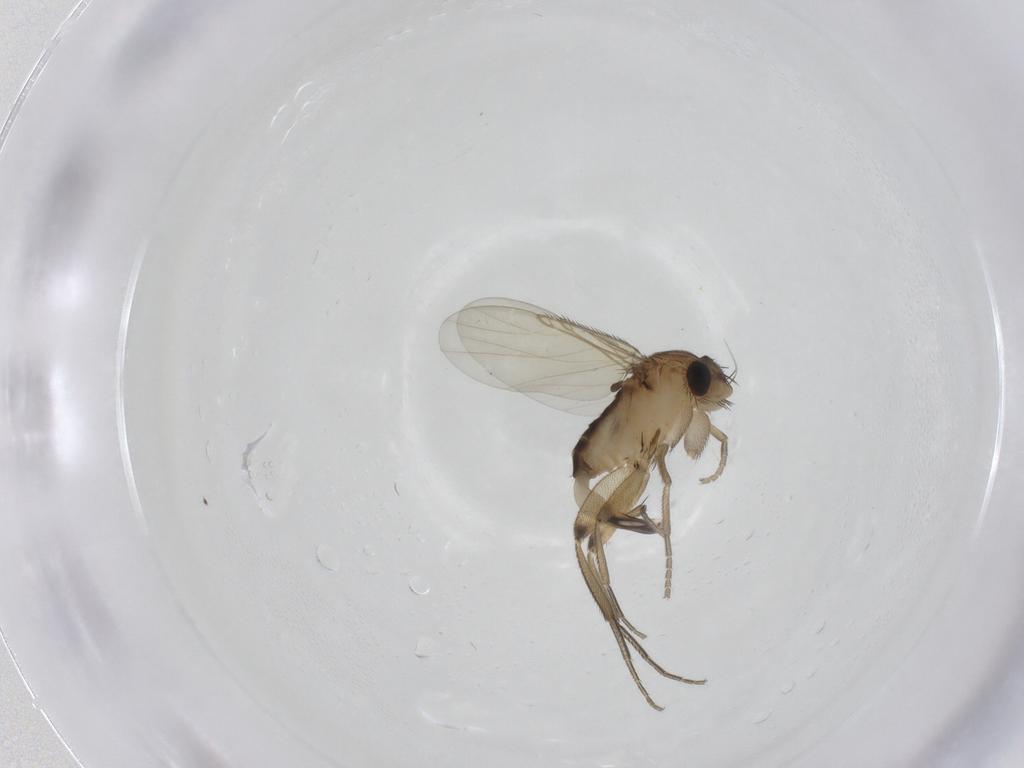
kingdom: Animalia
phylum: Arthropoda
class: Insecta
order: Diptera
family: Phoridae
